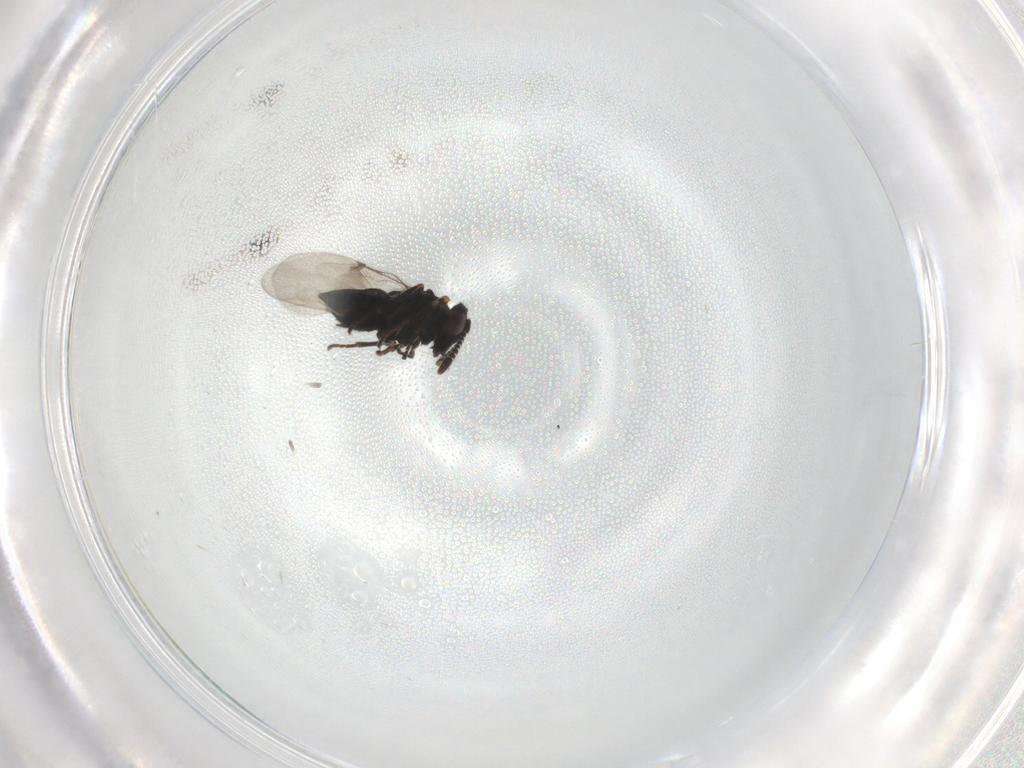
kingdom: Animalia
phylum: Arthropoda
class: Insecta
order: Hymenoptera
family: Encyrtidae
